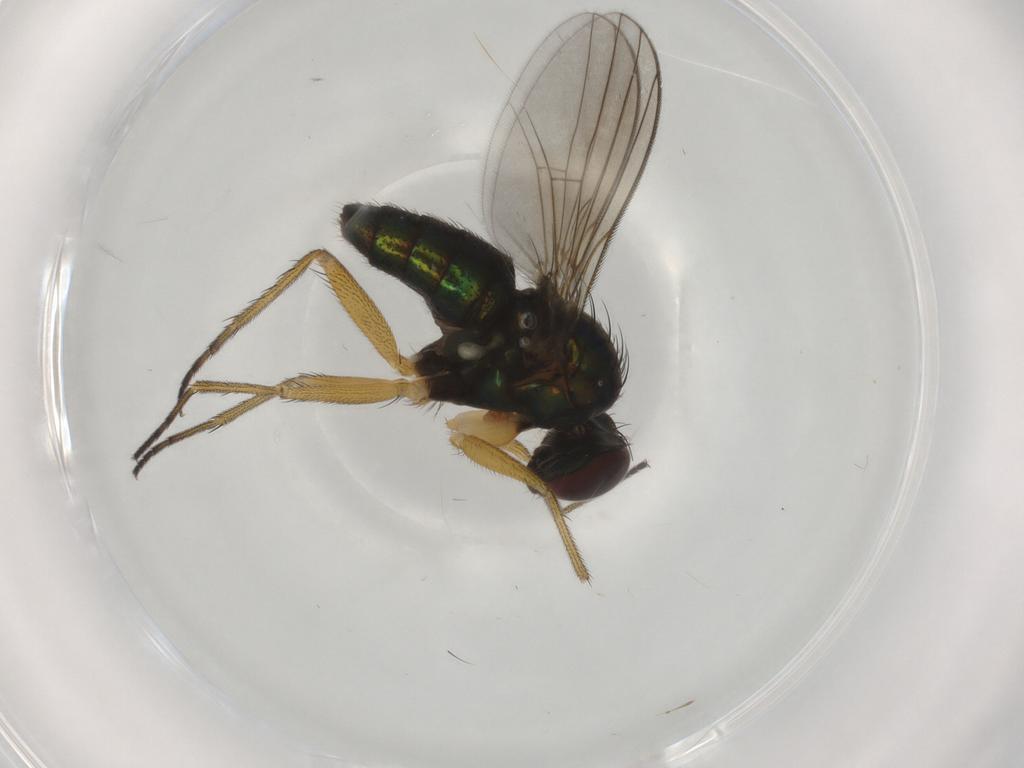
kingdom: Animalia
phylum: Arthropoda
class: Insecta
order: Diptera
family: Dolichopodidae
